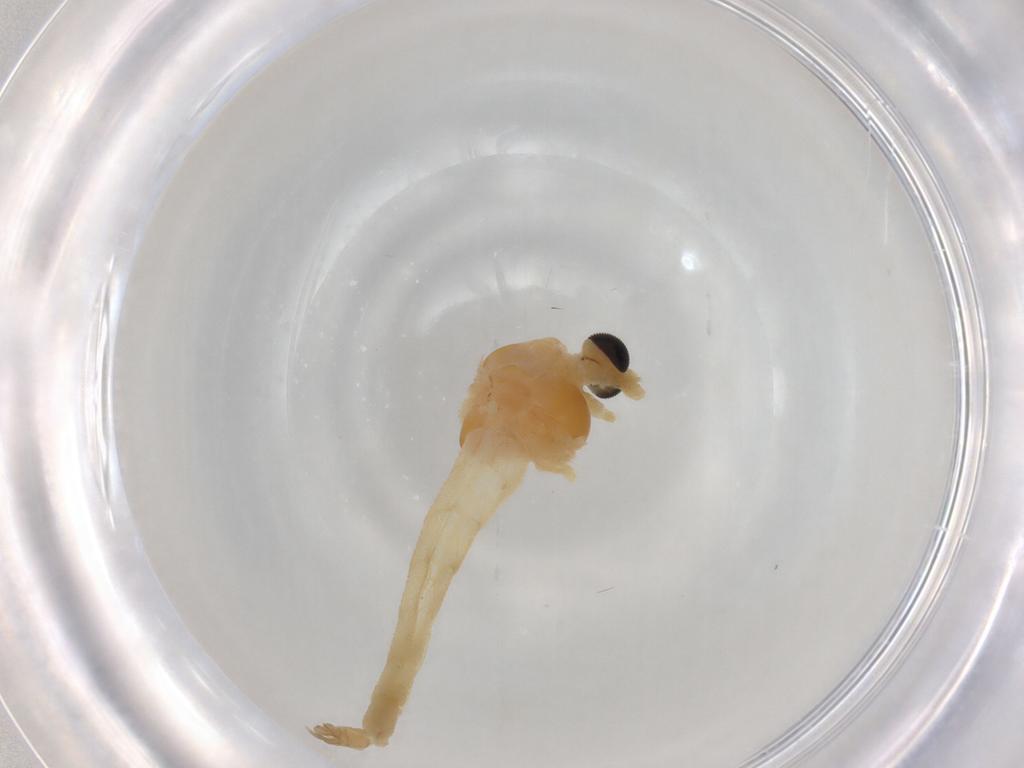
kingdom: Animalia
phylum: Arthropoda
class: Insecta
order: Diptera
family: Chironomidae
